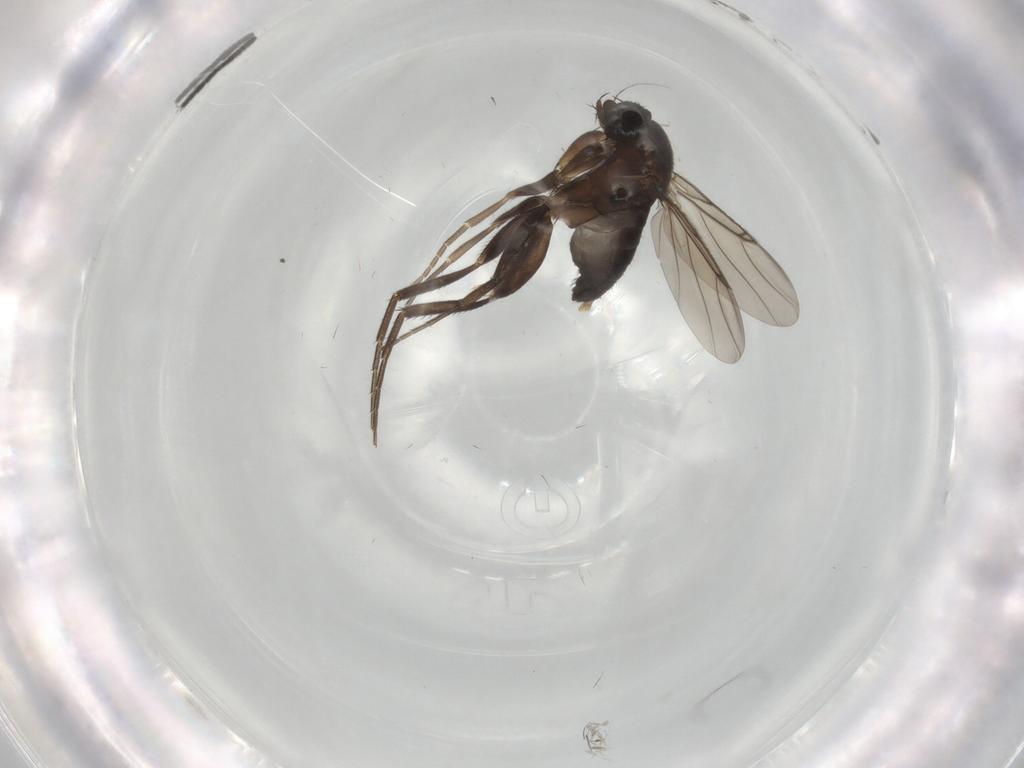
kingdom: Animalia
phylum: Arthropoda
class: Insecta
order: Diptera
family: Phoridae
